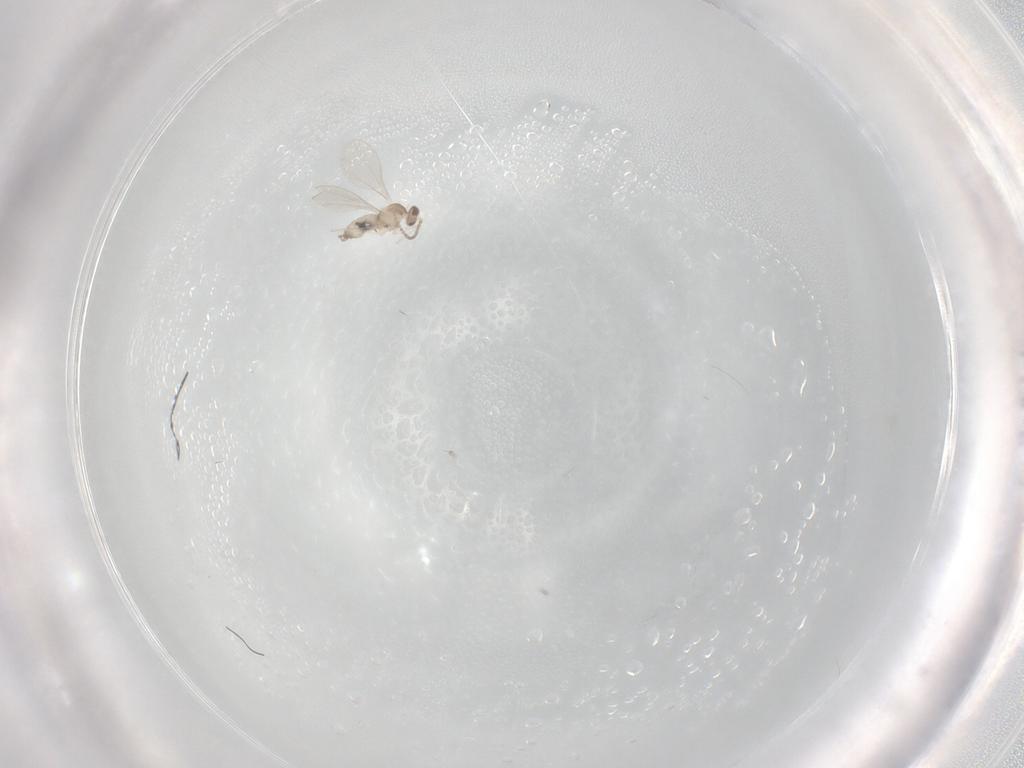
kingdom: Animalia
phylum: Arthropoda
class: Insecta
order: Diptera
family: Cecidomyiidae
